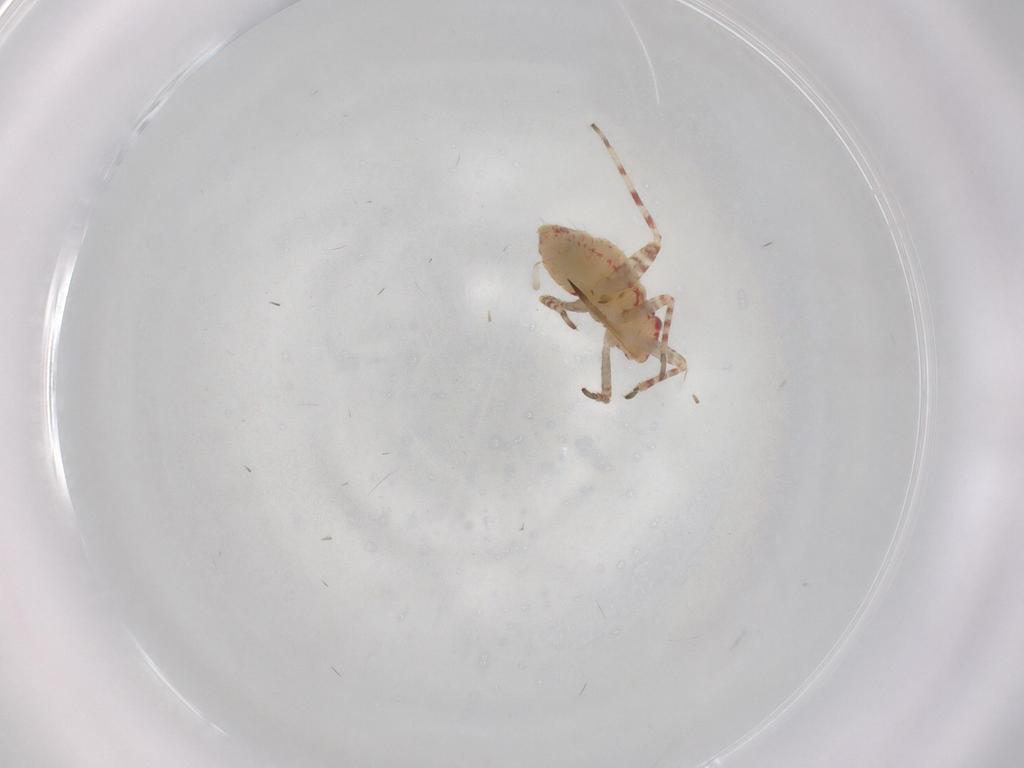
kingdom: Animalia
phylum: Arthropoda
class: Insecta
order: Hemiptera
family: Miridae
